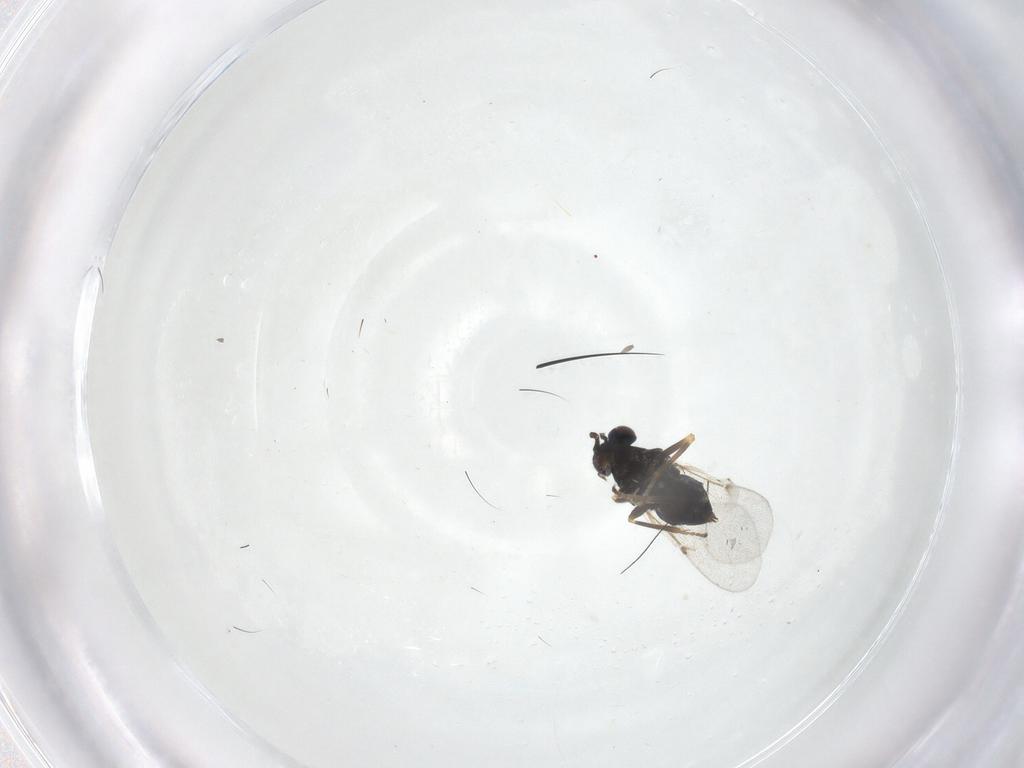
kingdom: Animalia
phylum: Arthropoda
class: Insecta
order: Hymenoptera
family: Encyrtidae
